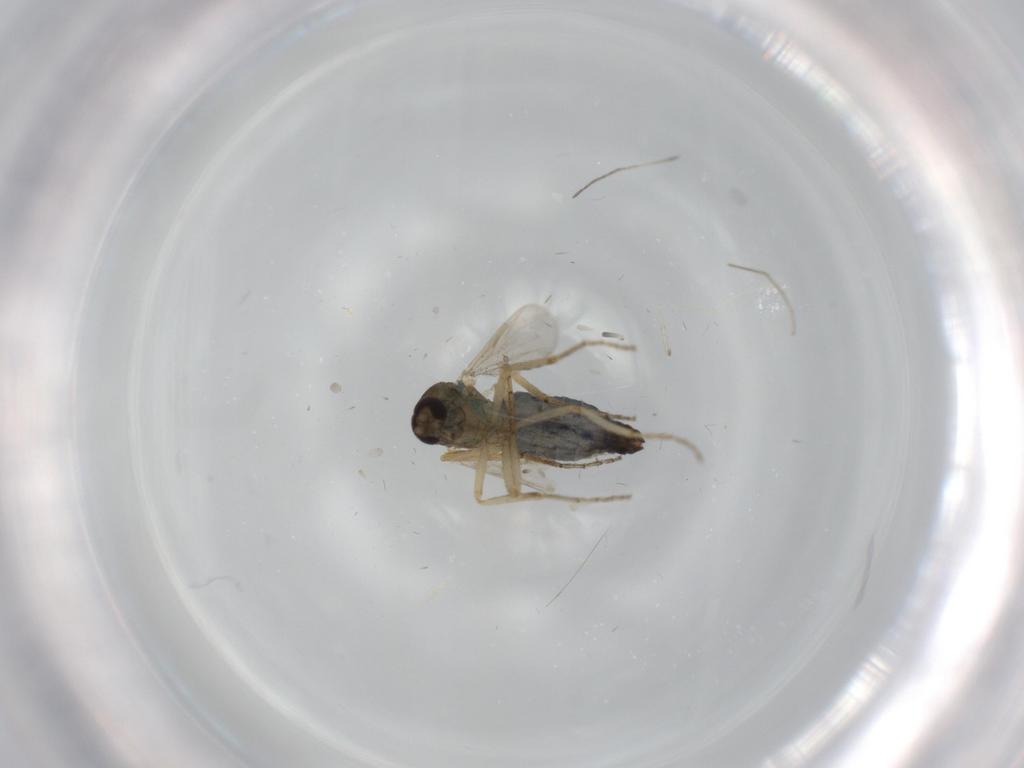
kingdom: Animalia
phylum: Arthropoda
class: Insecta
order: Diptera
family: Ceratopogonidae
